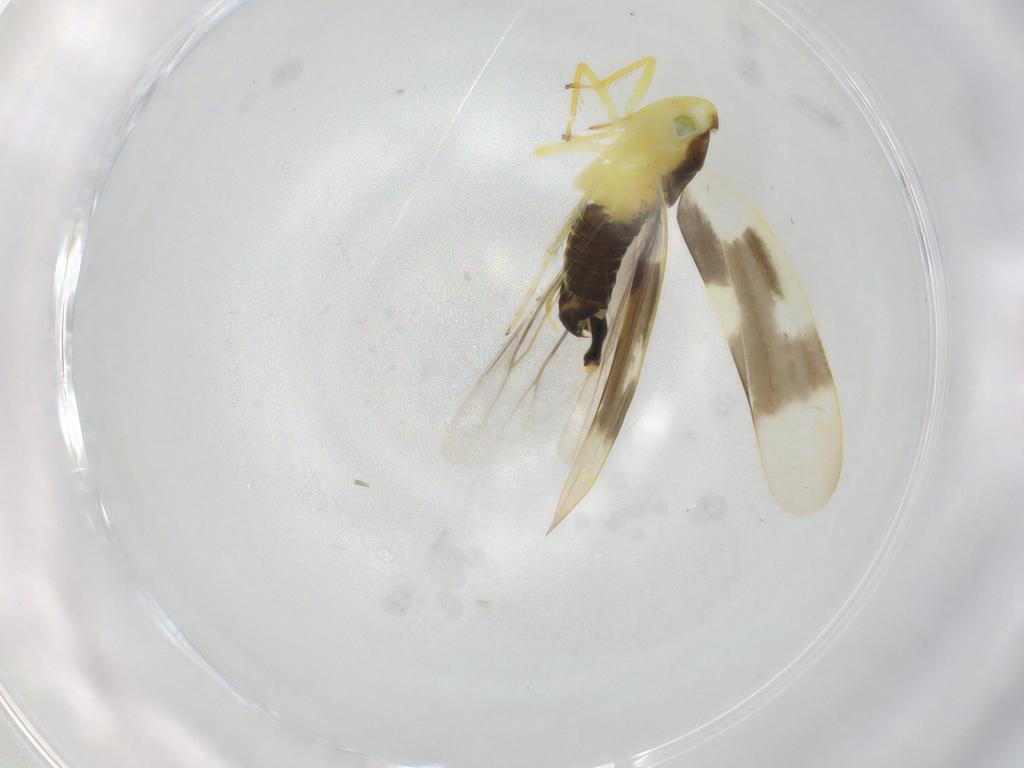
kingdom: Animalia
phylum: Arthropoda
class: Insecta
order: Hemiptera
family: Cicadellidae
